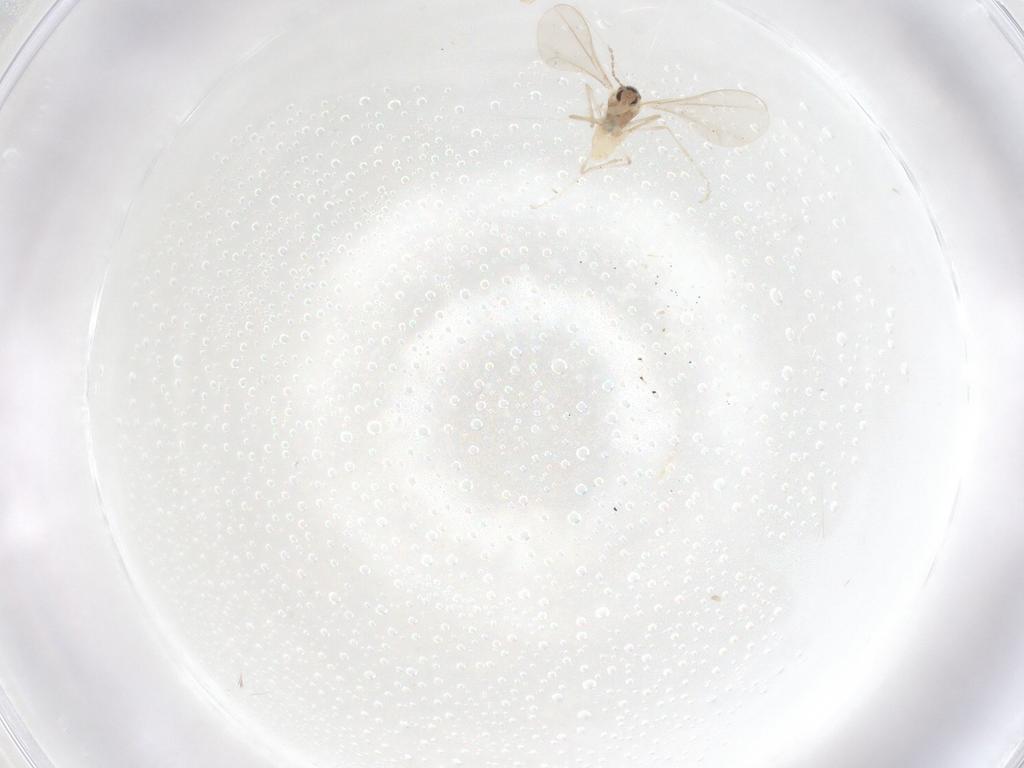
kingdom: Animalia
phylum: Arthropoda
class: Insecta
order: Diptera
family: Cecidomyiidae
